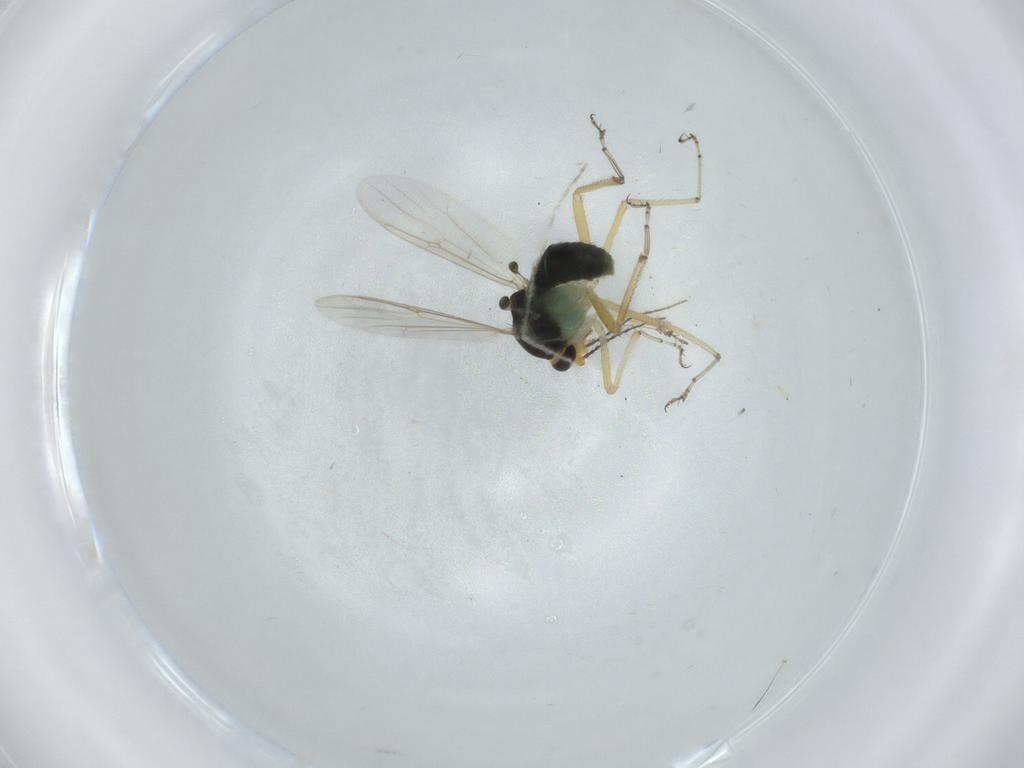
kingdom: Animalia
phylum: Arthropoda
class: Insecta
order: Diptera
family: Ceratopogonidae
